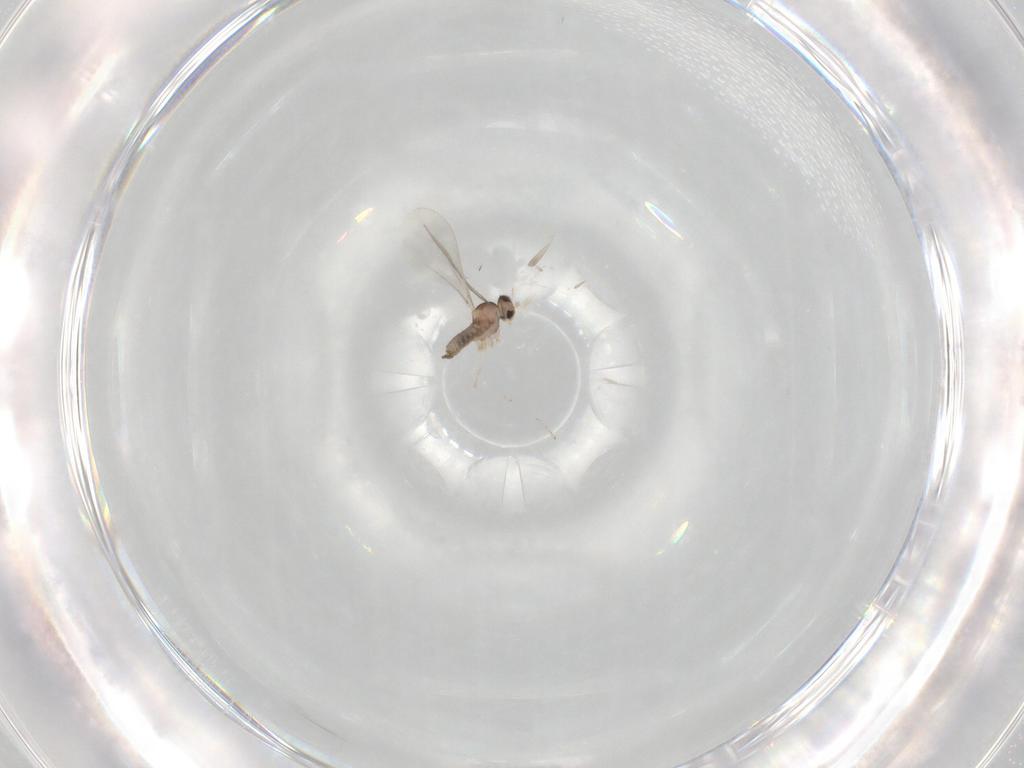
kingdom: Animalia
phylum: Arthropoda
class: Insecta
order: Diptera
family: Cecidomyiidae
